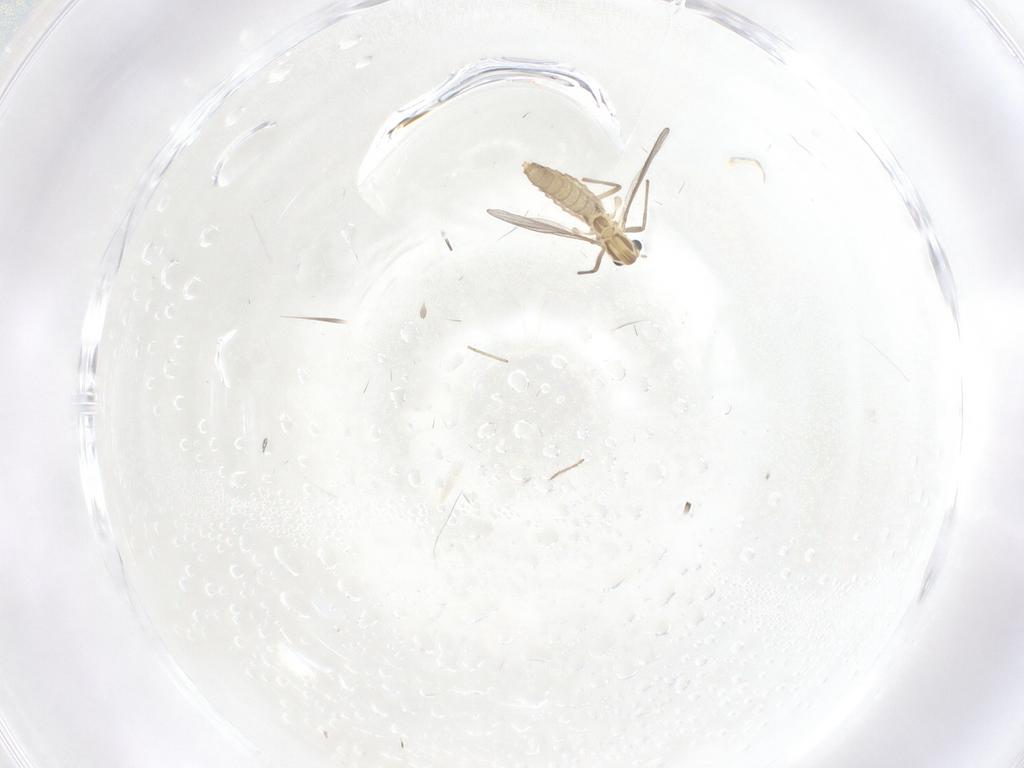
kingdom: Animalia
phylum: Arthropoda
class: Insecta
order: Diptera
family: Chironomidae
